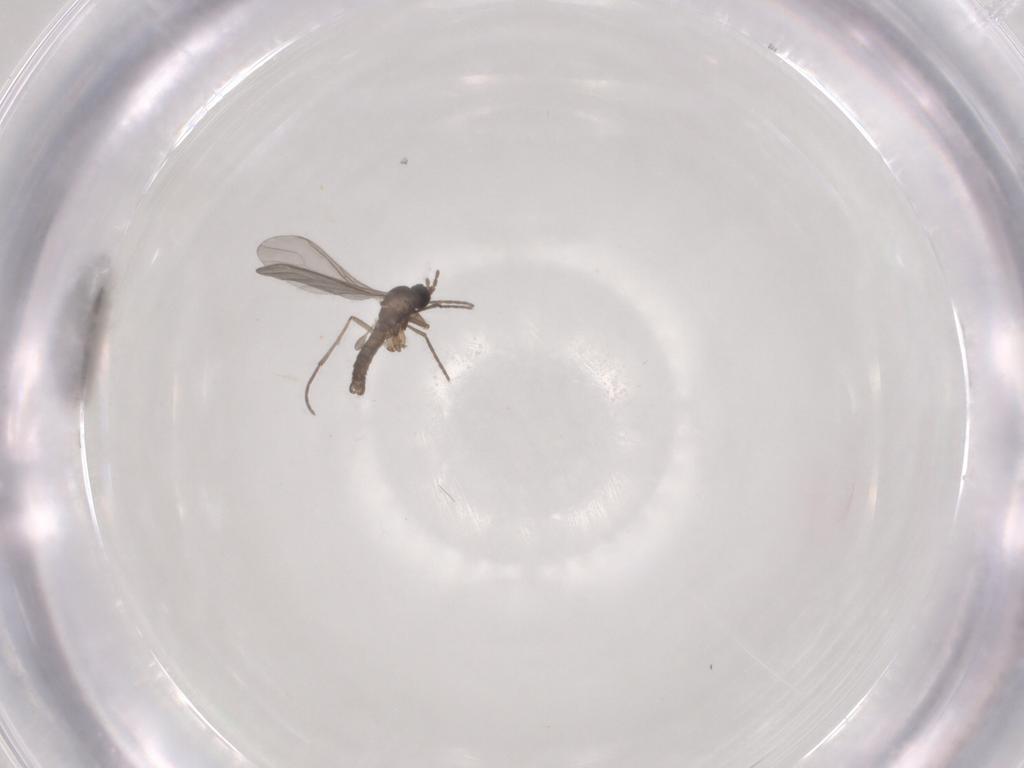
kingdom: Animalia
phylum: Arthropoda
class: Insecta
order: Diptera
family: Sciaridae
